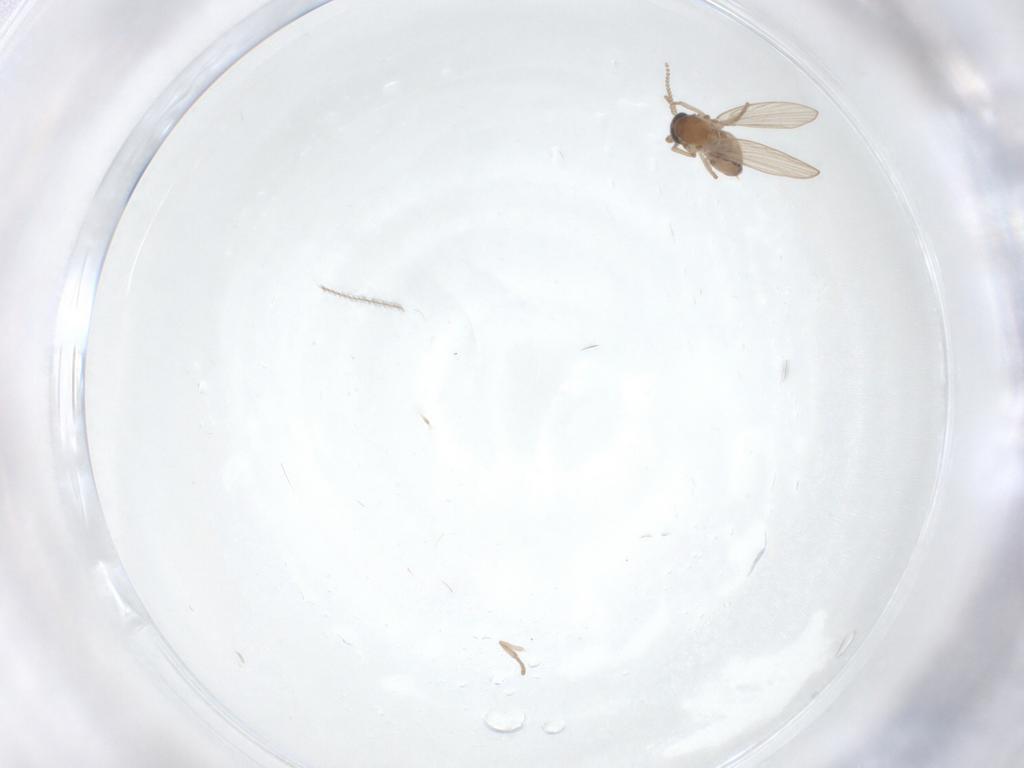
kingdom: Animalia
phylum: Arthropoda
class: Insecta
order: Diptera
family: Psychodidae
